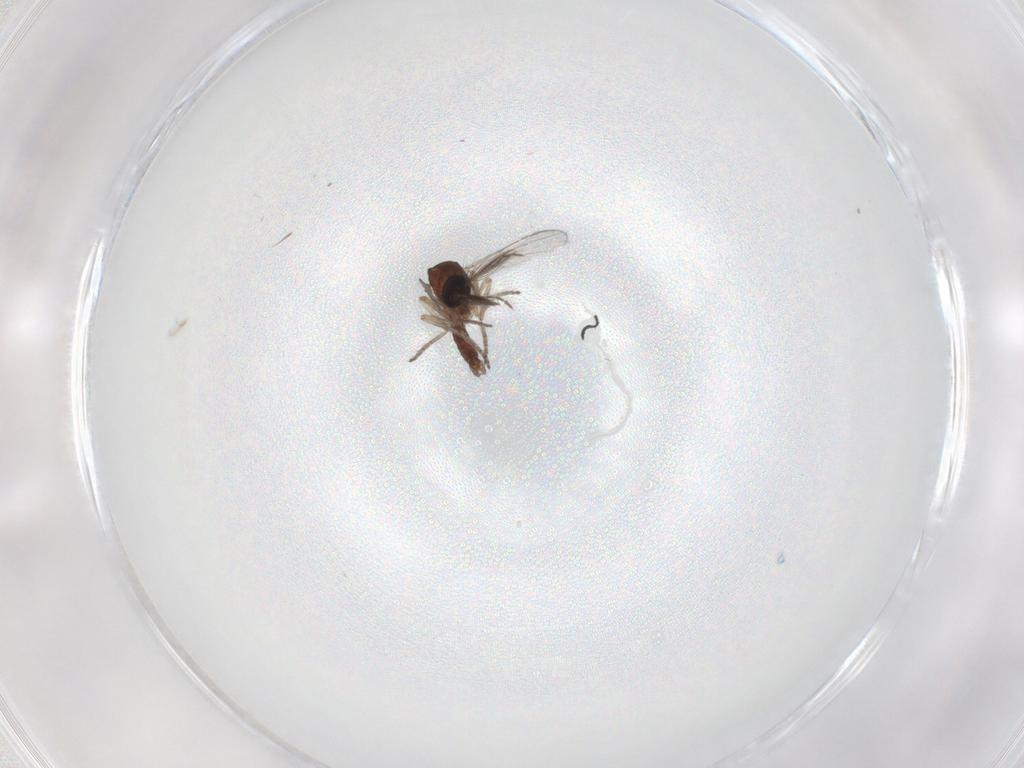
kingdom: Animalia
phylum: Arthropoda
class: Insecta
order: Diptera
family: Ceratopogonidae
